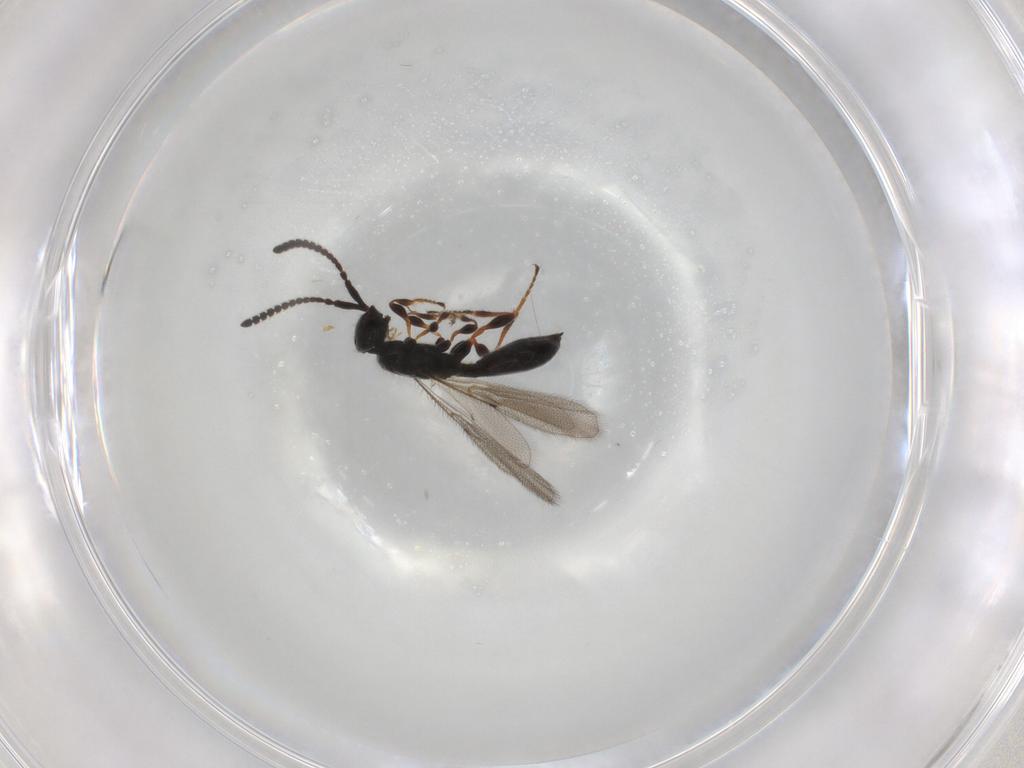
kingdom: Animalia
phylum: Arthropoda
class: Insecta
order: Hymenoptera
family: Diapriidae
